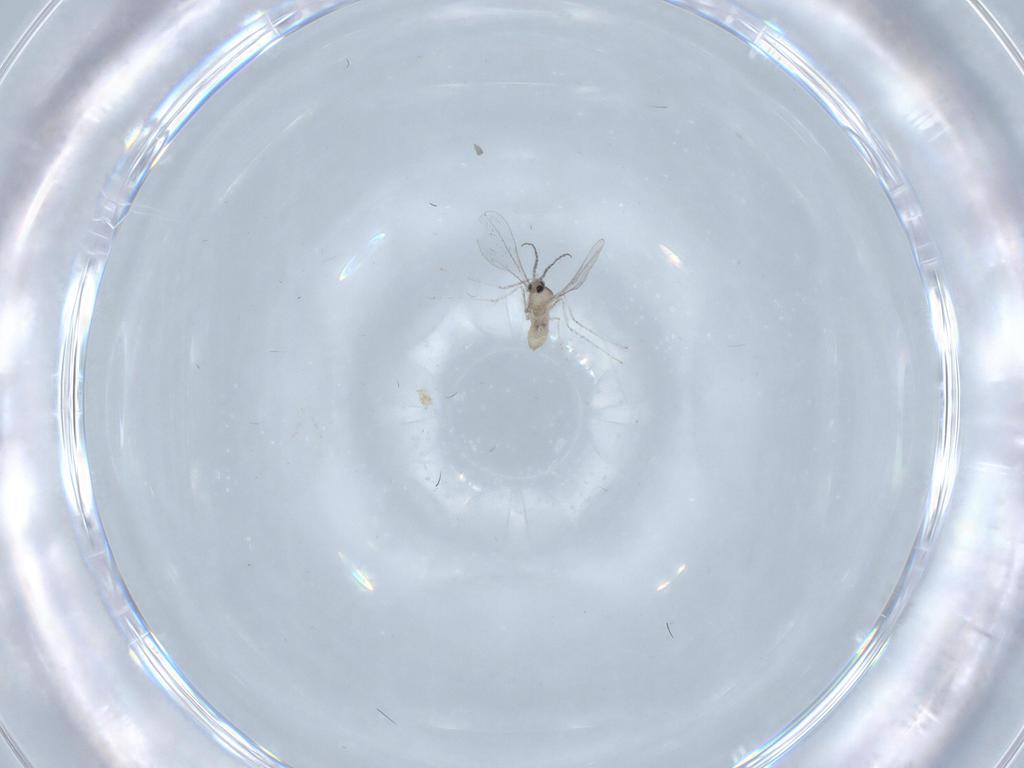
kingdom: Animalia
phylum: Arthropoda
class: Insecta
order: Diptera
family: Cecidomyiidae
